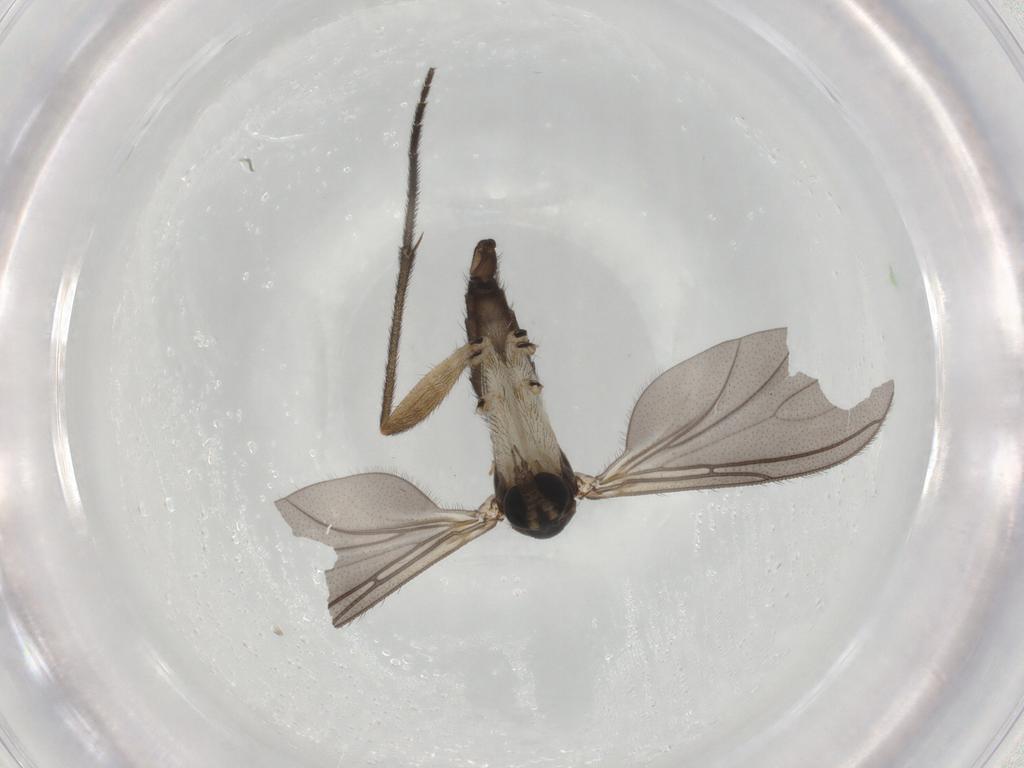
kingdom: Animalia
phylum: Arthropoda
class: Insecta
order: Diptera
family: Sciaridae
